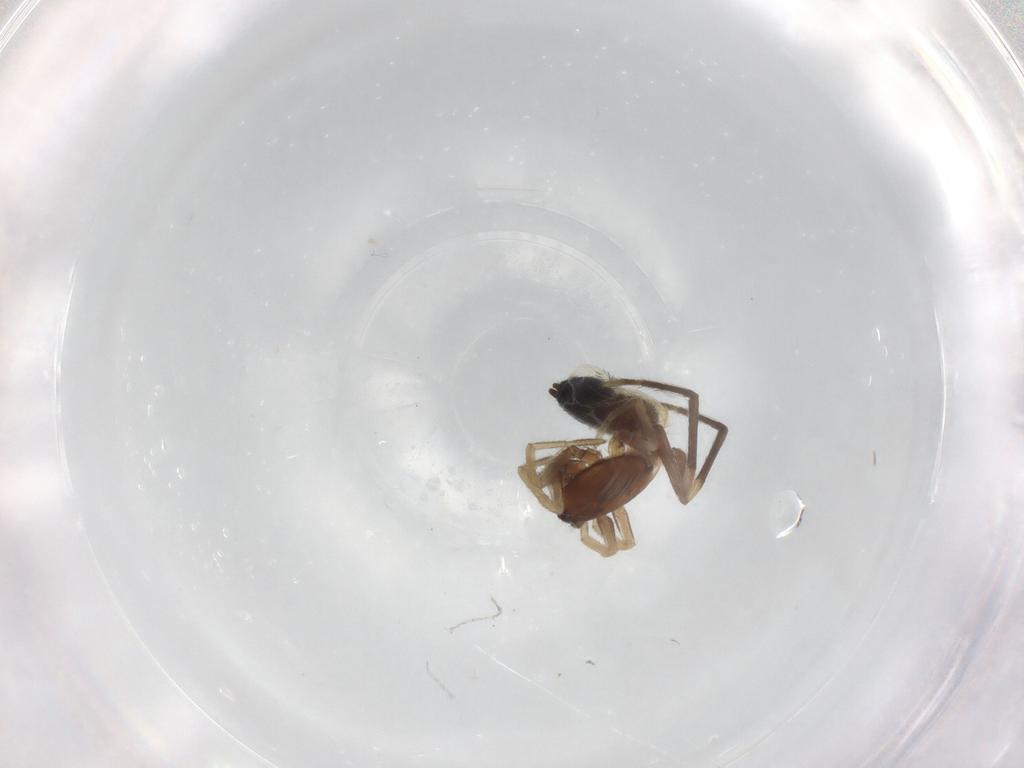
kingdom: Animalia
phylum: Arthropoda
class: Arachnida
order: Araneae
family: Gnaphosidae
